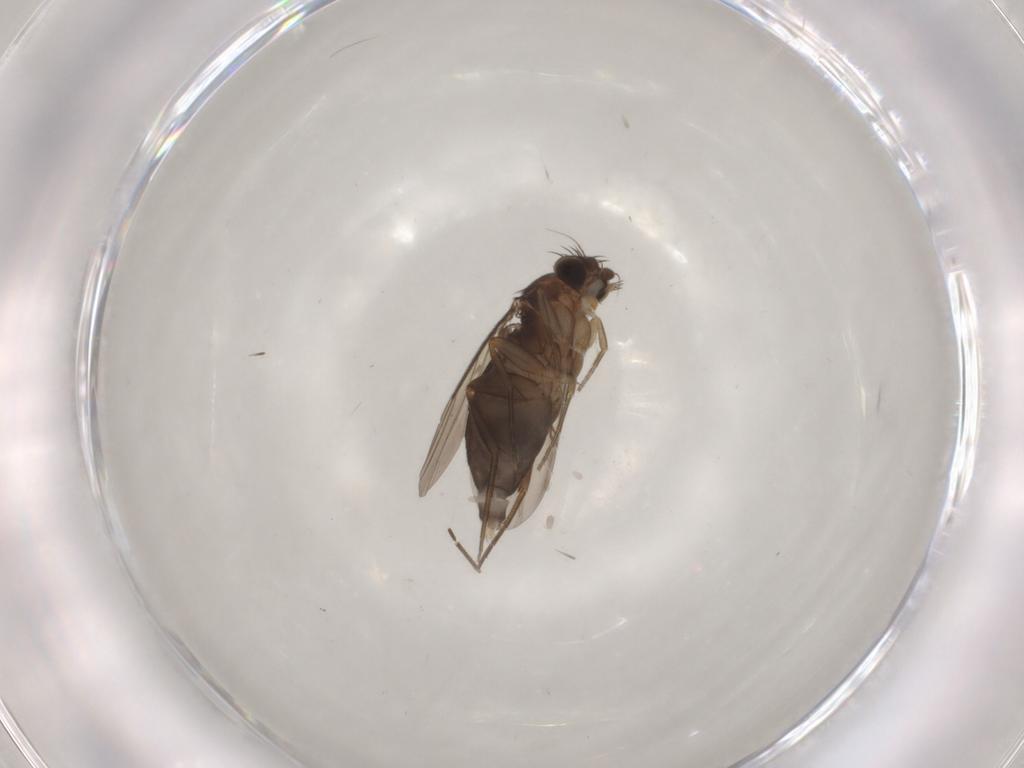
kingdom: Animalia
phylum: Arthropoda
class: Insecta
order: Diptera
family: Phoridae
